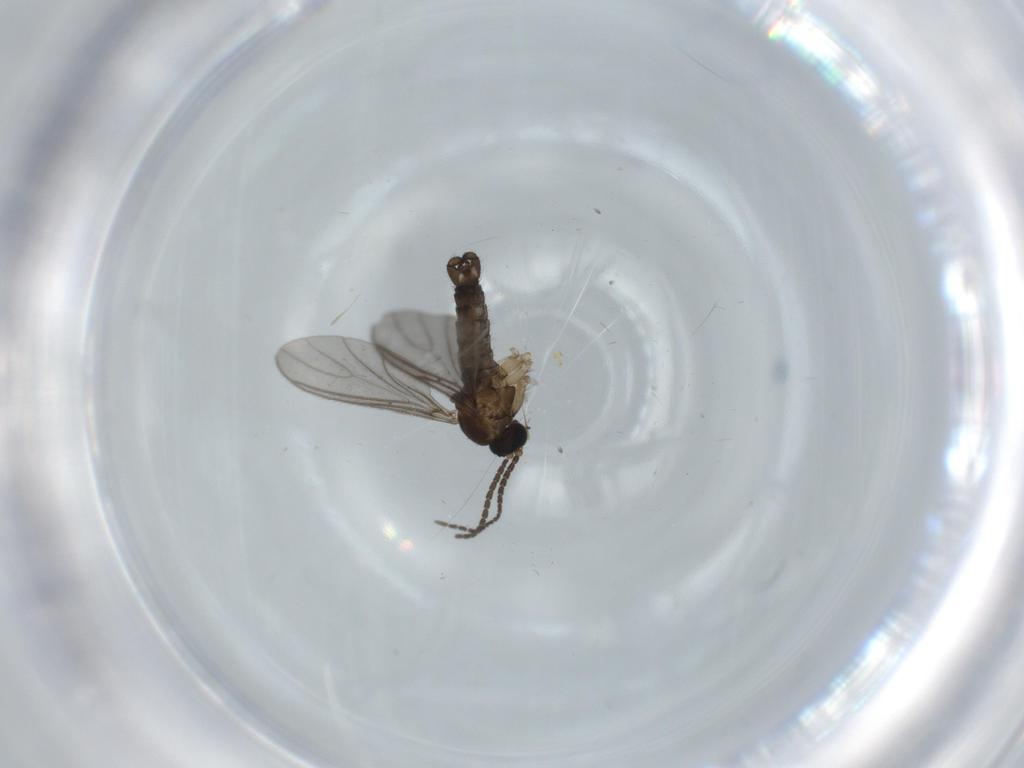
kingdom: Animalia
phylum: Arthropoda
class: Insecta
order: Diptera
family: Sciaridae
